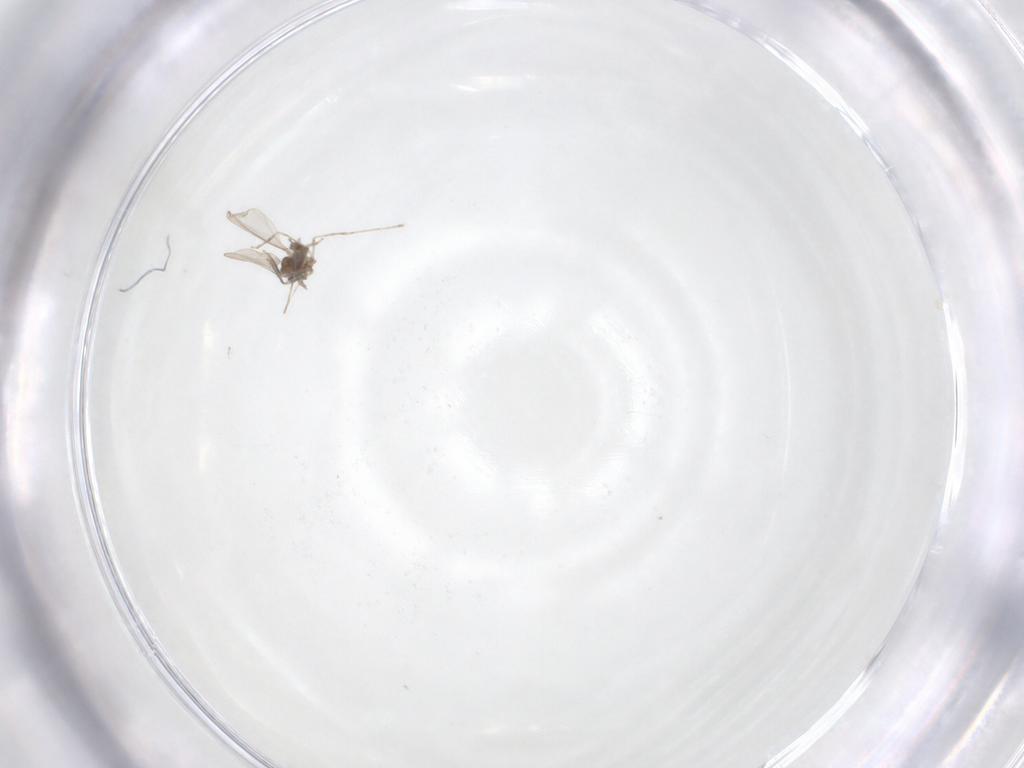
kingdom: Animalia
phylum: Arthropoda
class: Insecta
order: Diptera
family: Cecidomyiidae
